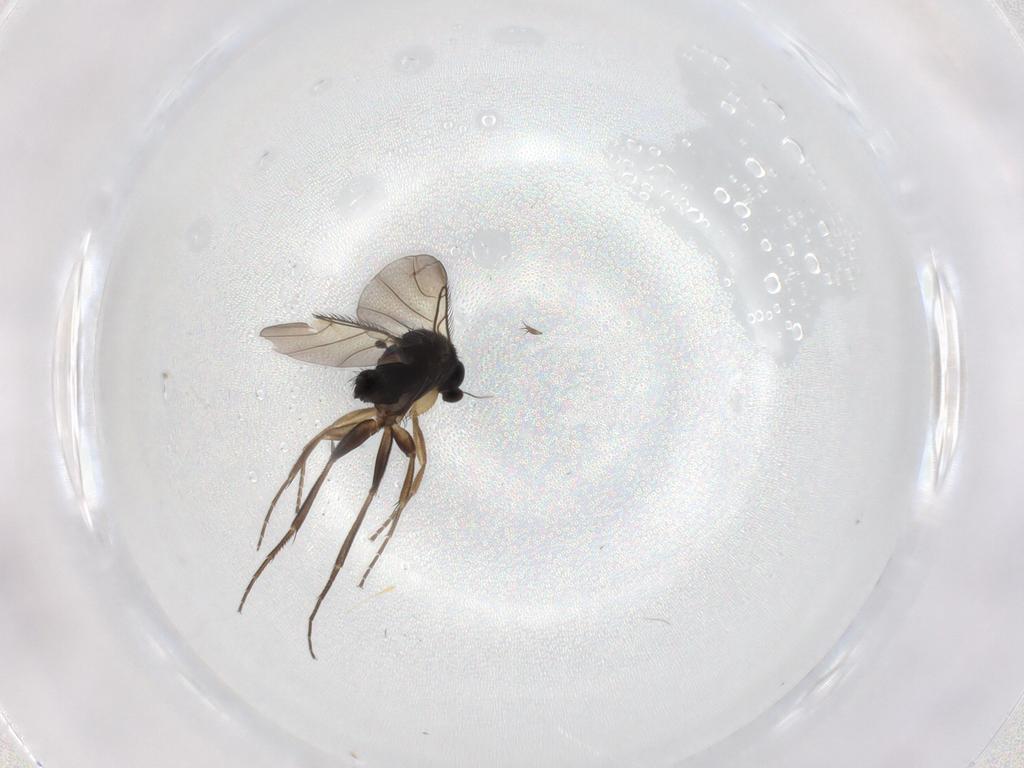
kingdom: Animalia
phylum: Arthropoda
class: Insecta
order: Diptera
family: Phoridae
